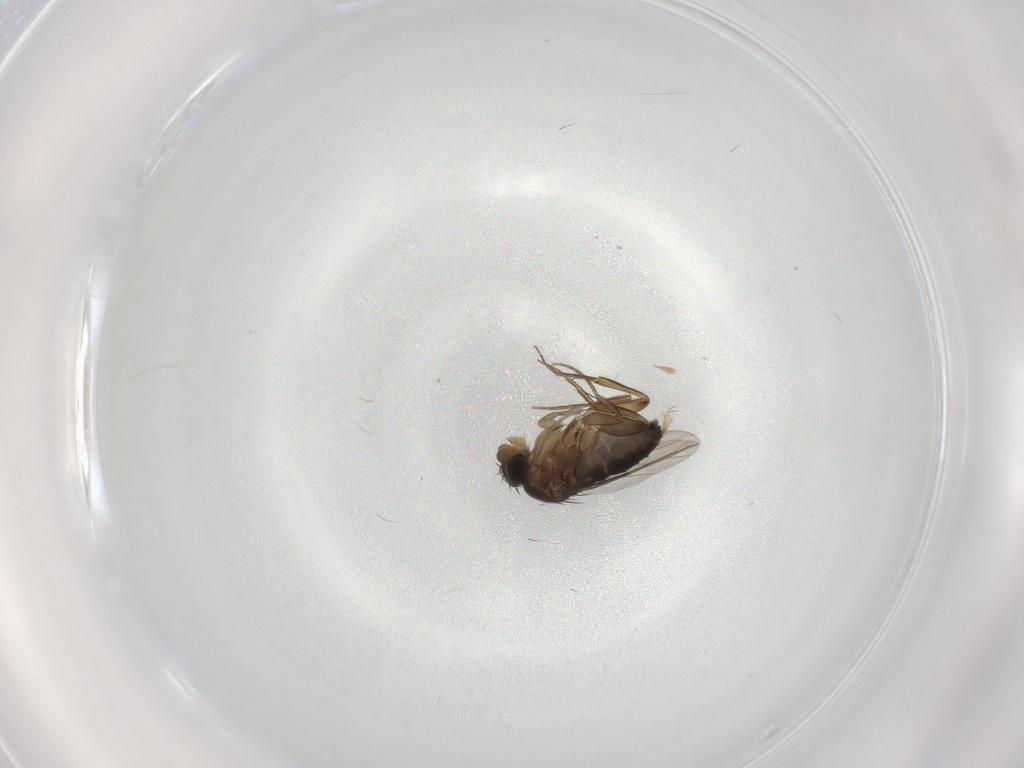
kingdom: Animalia
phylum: Arthropoda
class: Insecta
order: Diptera
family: Phoridae
